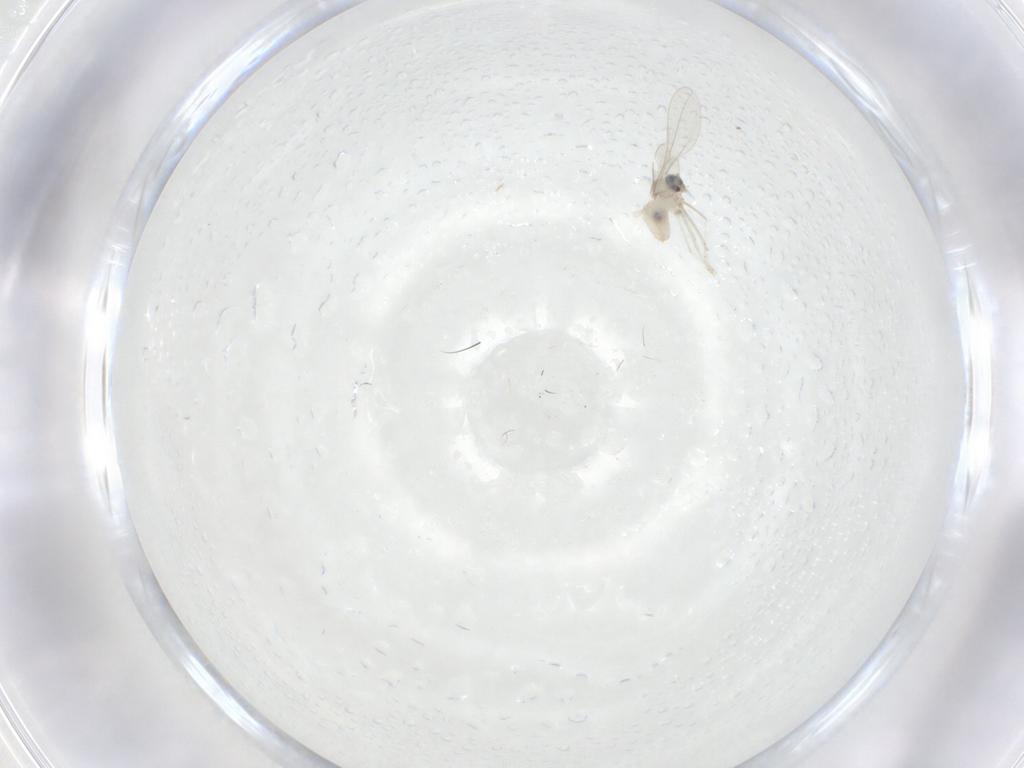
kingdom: Animalia
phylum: Arthropoda
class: Insecta
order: Diptera
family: Cecidomyiidae
